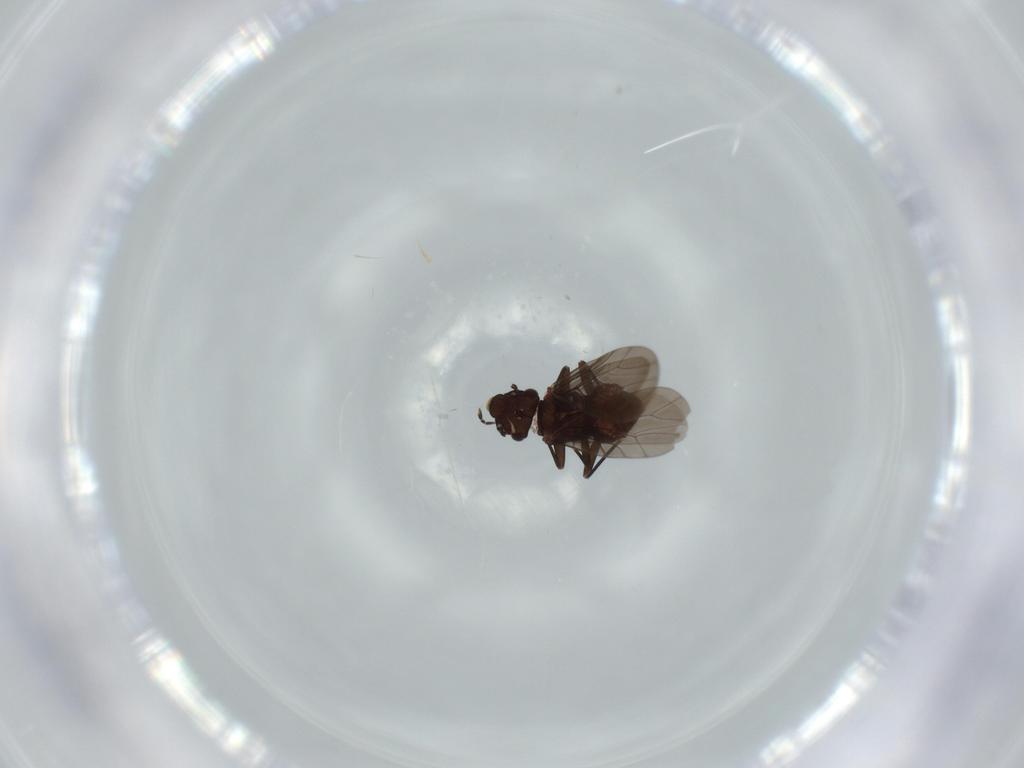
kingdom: Animalia
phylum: Arthropoda
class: Insecta
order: Psocodea
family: Lepidopsocidae
